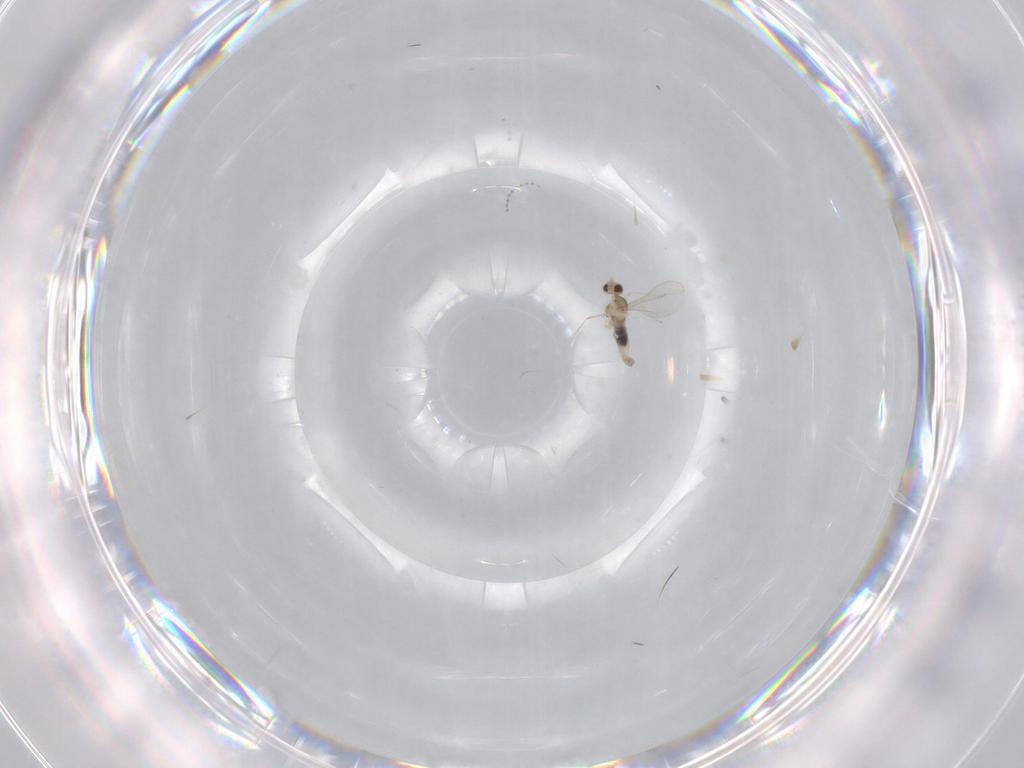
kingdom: Animalia
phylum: Arthropoda
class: Insecta
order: Diptera
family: Cecidomyiidae
